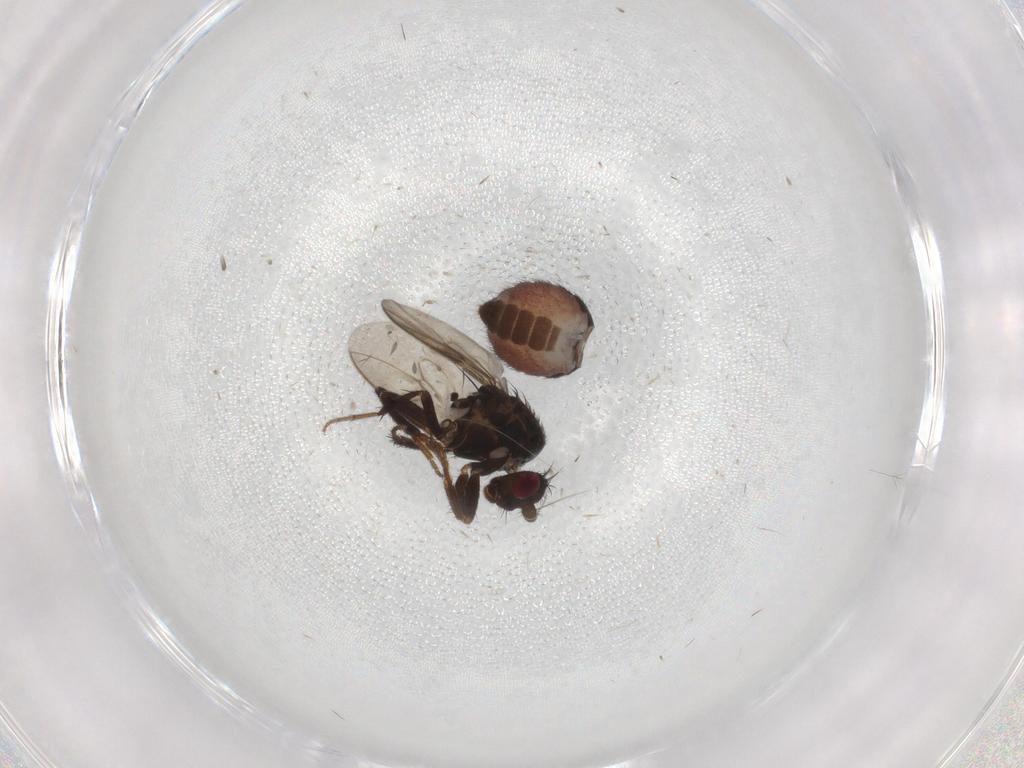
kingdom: Animalia
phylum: Arthropoda
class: Insecta
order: Diptera
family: Sphaeroceridae
